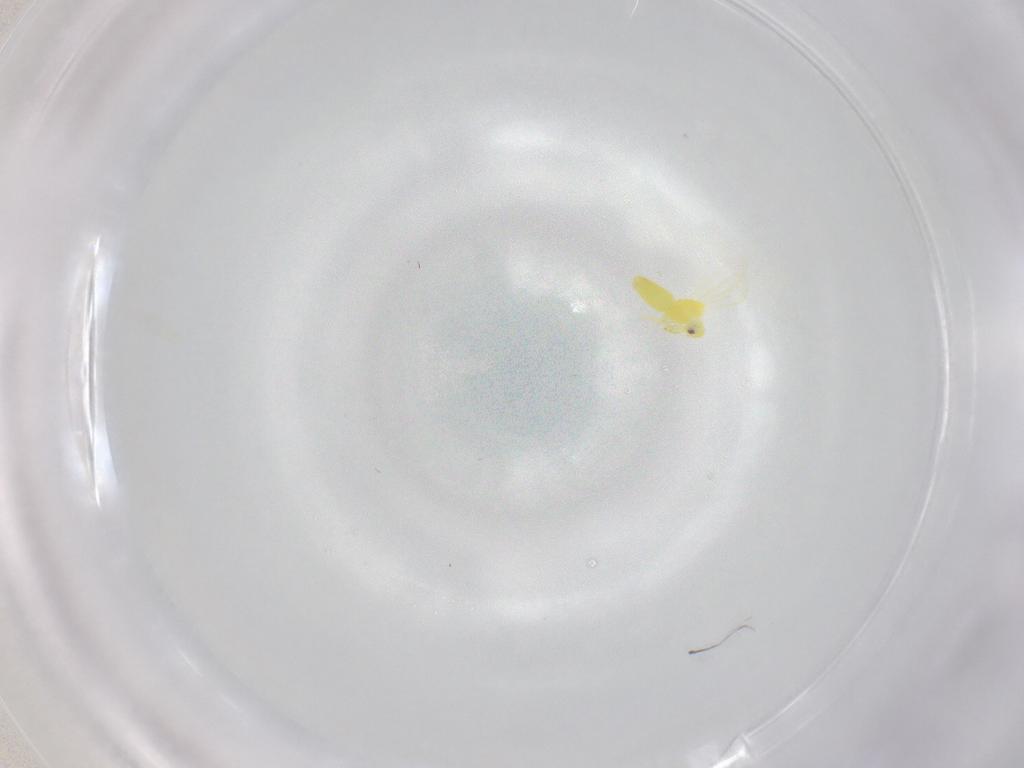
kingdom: Animalia
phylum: Arthropoda
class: Insecta
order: Hemiptera
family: Aleyrodidae
